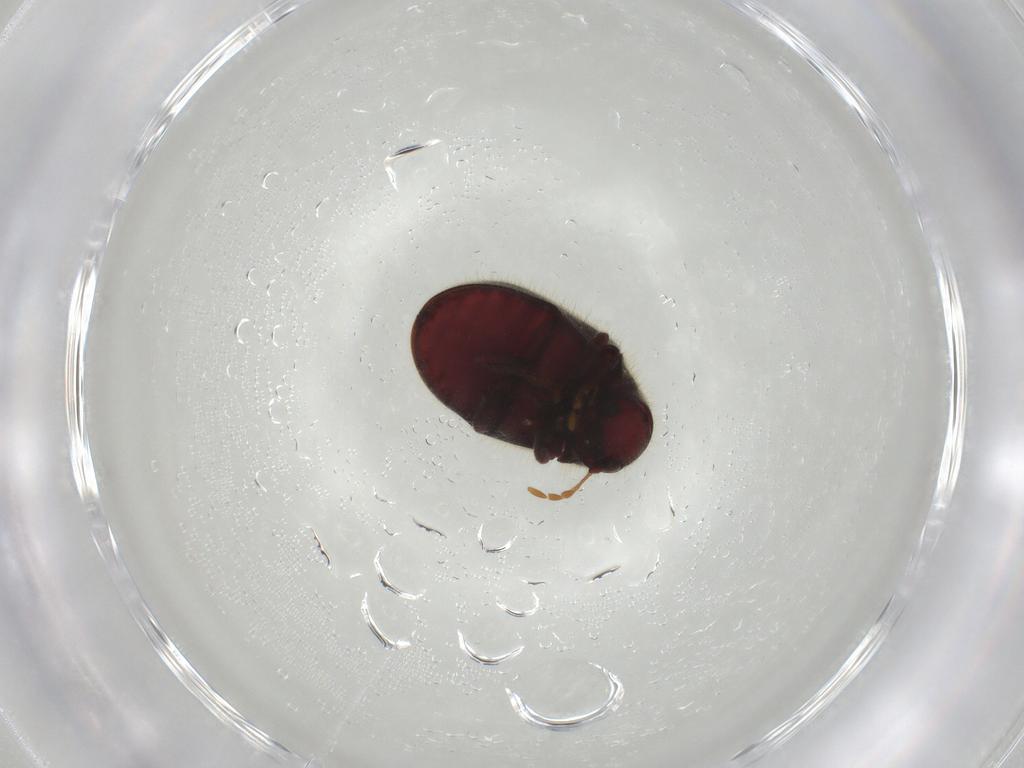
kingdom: Animalia
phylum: Arthropoda
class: Insecta
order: Coleoptera
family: Ptinidae
